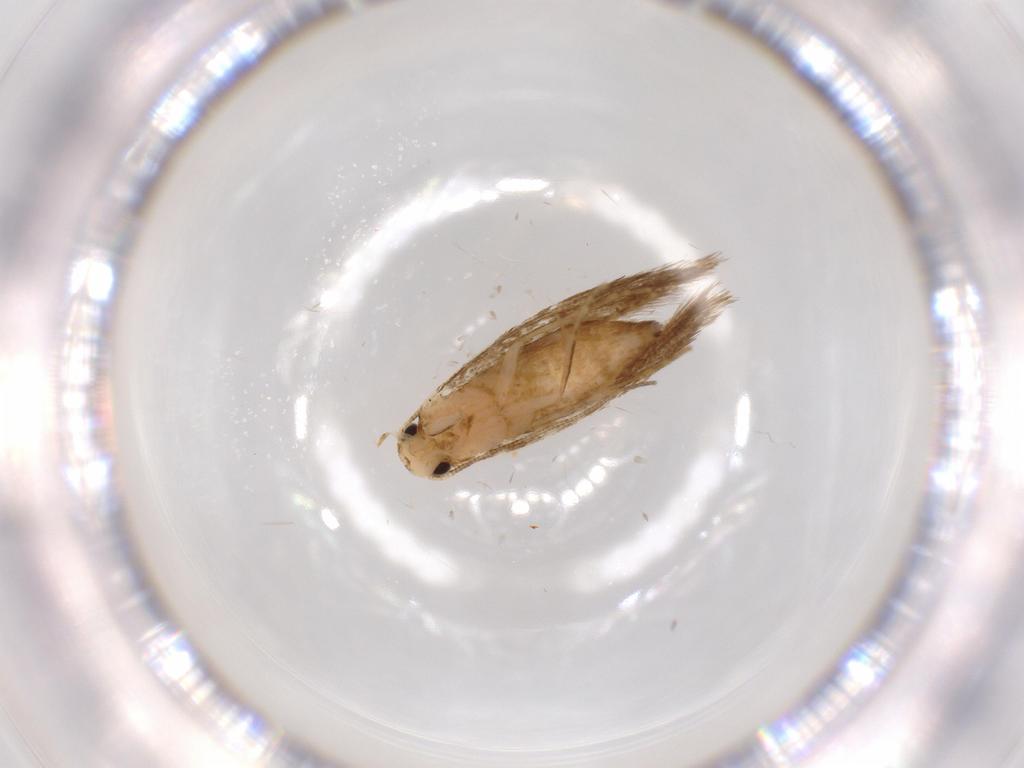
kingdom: Animalia
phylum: Arthropoda
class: Insecta
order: Lepidoptera
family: Tineidae
